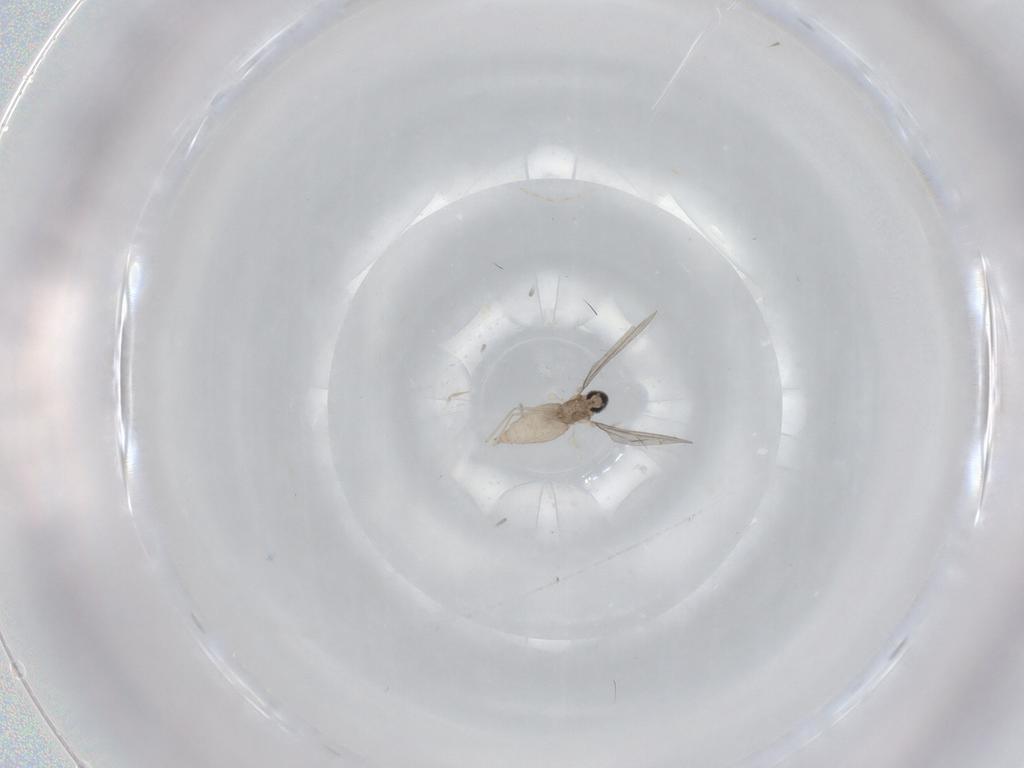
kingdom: Animalia
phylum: Arthropoda
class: Insecta
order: Diptera
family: Cecidomyiidae
